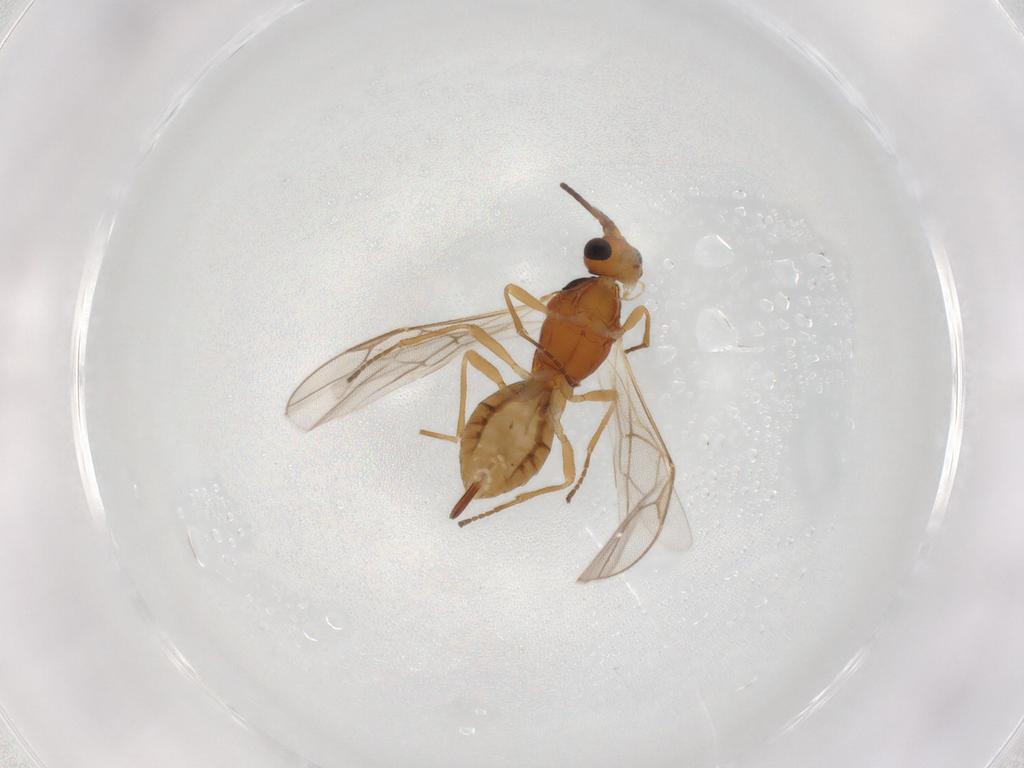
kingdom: Animalia
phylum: Arthropoda
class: Insecta
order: Hymenoptera
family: Braconidae
